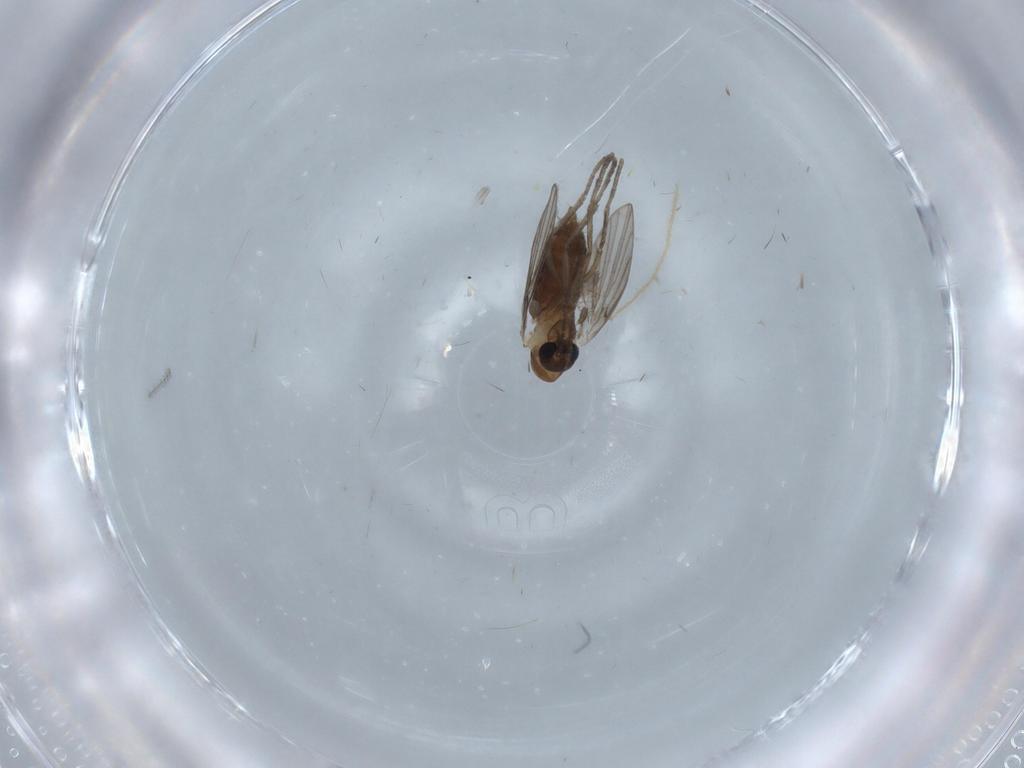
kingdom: Animalia
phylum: Arthropoda
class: Insecta
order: Diptera
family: Chironomidae
